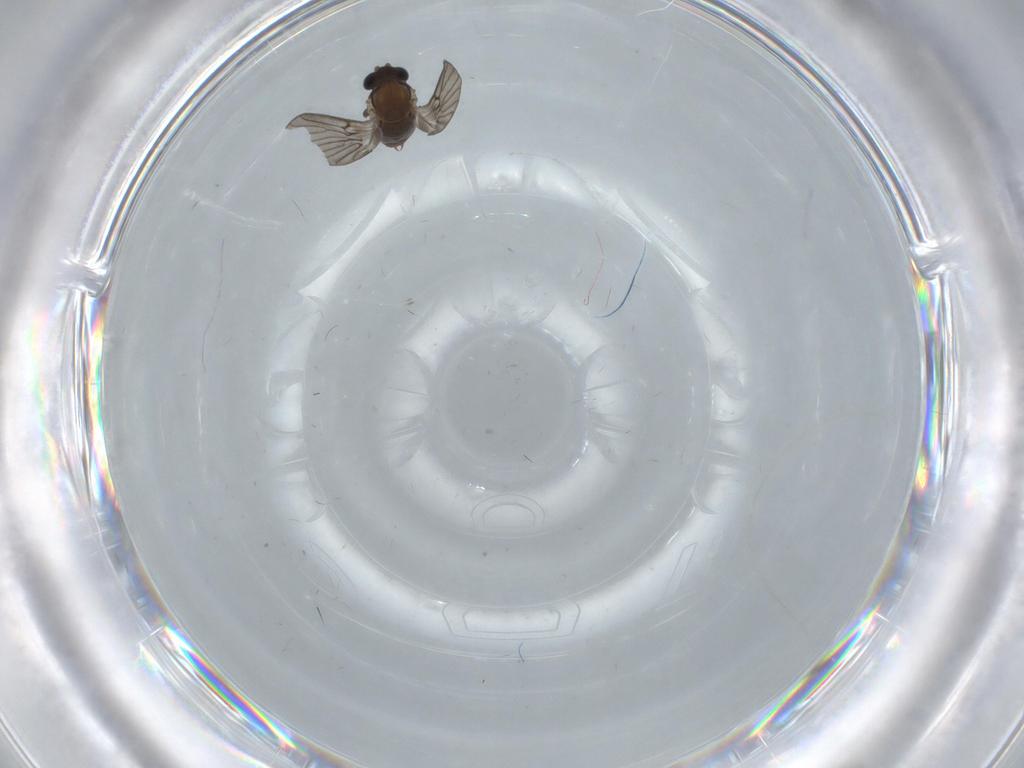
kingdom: Animalia
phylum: Arthropoda
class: Insecta
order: Diptera
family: Psychodidae
